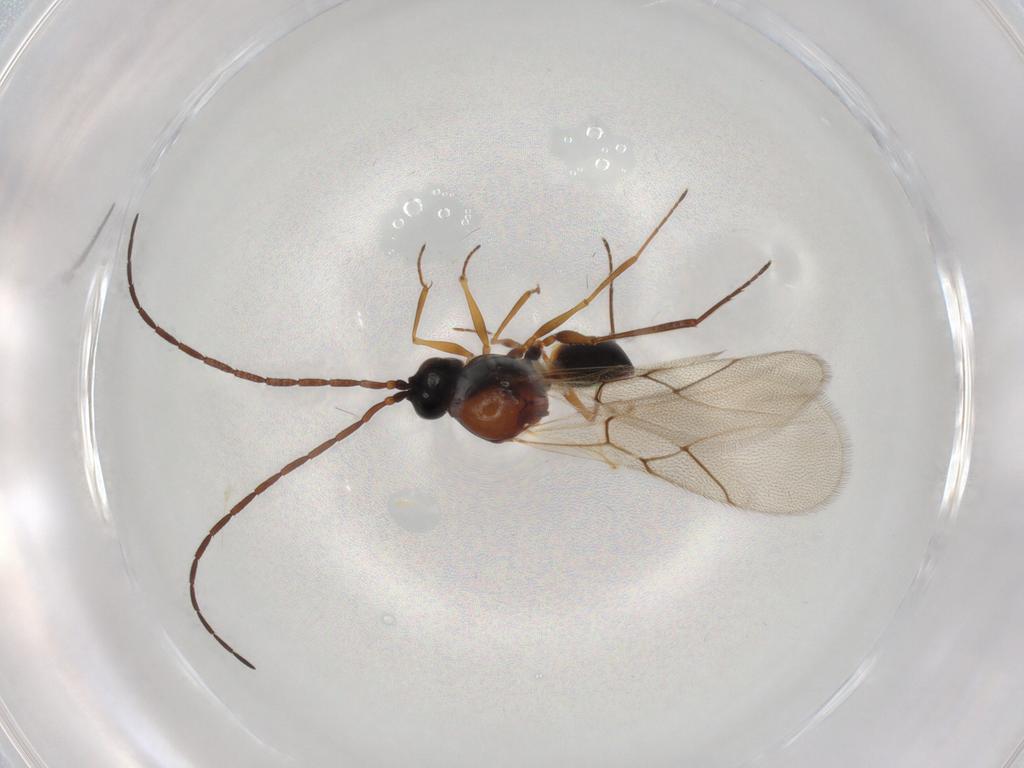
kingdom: Animalia
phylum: Arthropoda
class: Insecta
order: Hymenoptera
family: Figitidae
